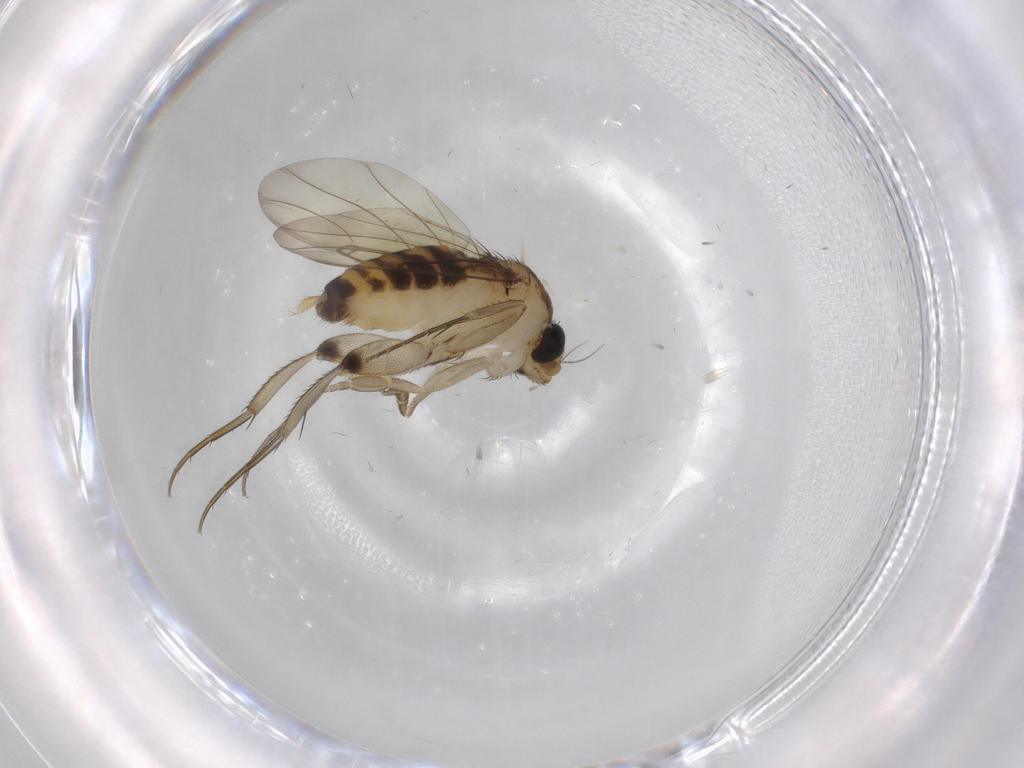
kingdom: Animalia
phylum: Arthropoda
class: Insecta
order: Diptera
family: Phoridae
